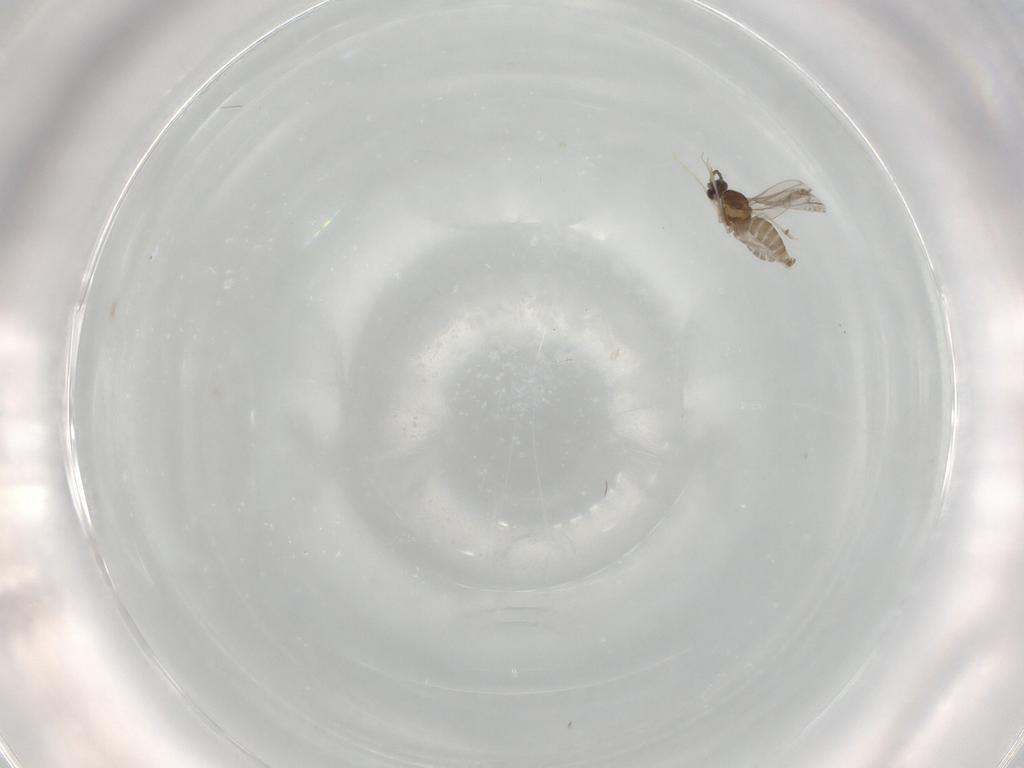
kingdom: Animalia
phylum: Arthropoda
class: Insecta
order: Diptera
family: Cecidomyiidae
